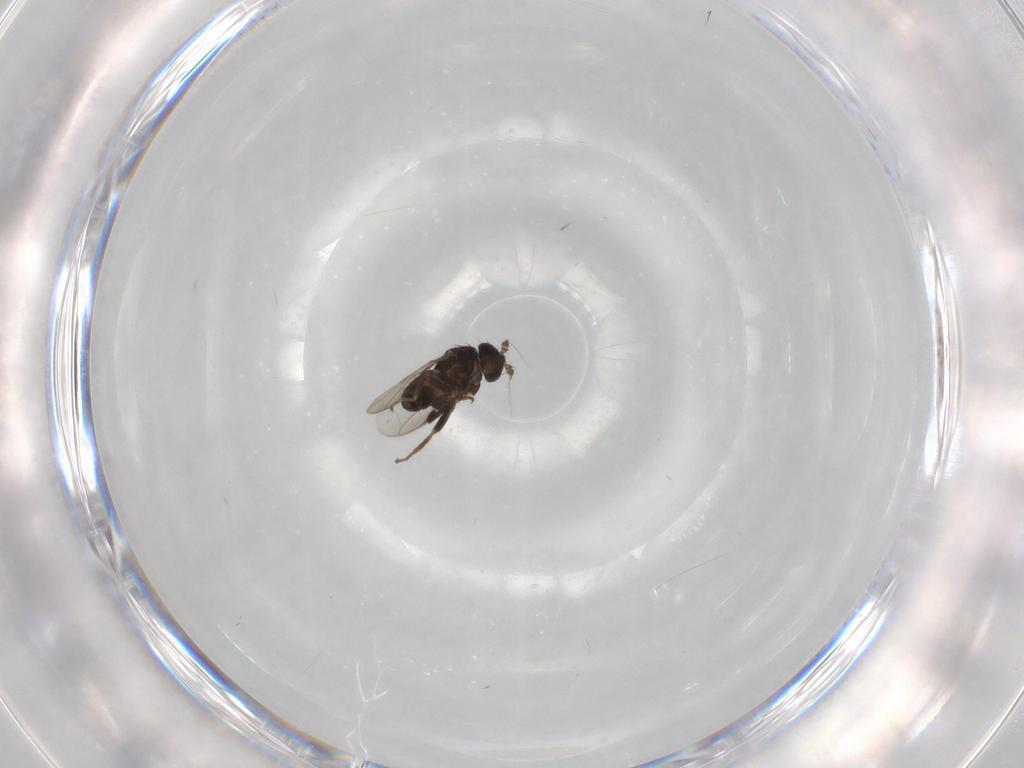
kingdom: Animalia
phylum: Arthropoda
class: Insecta
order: Diptera
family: Sphaeroceridae
